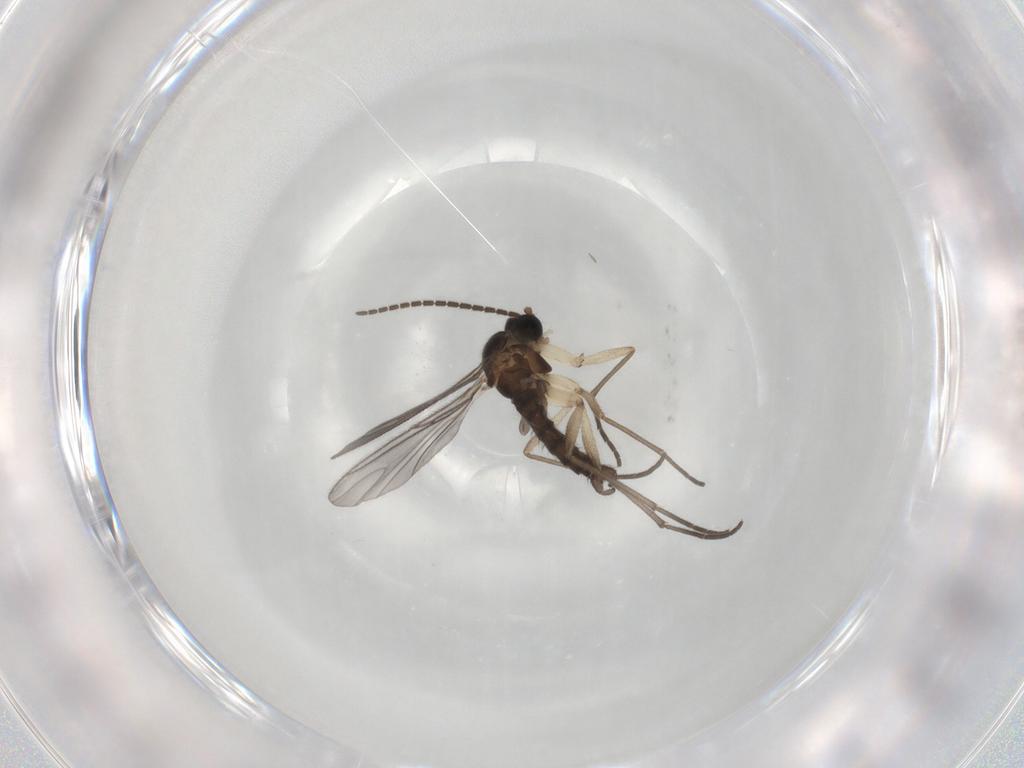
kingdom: Animalia
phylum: Arthropoda
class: Insecta
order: Diptera
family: Sciaridae
